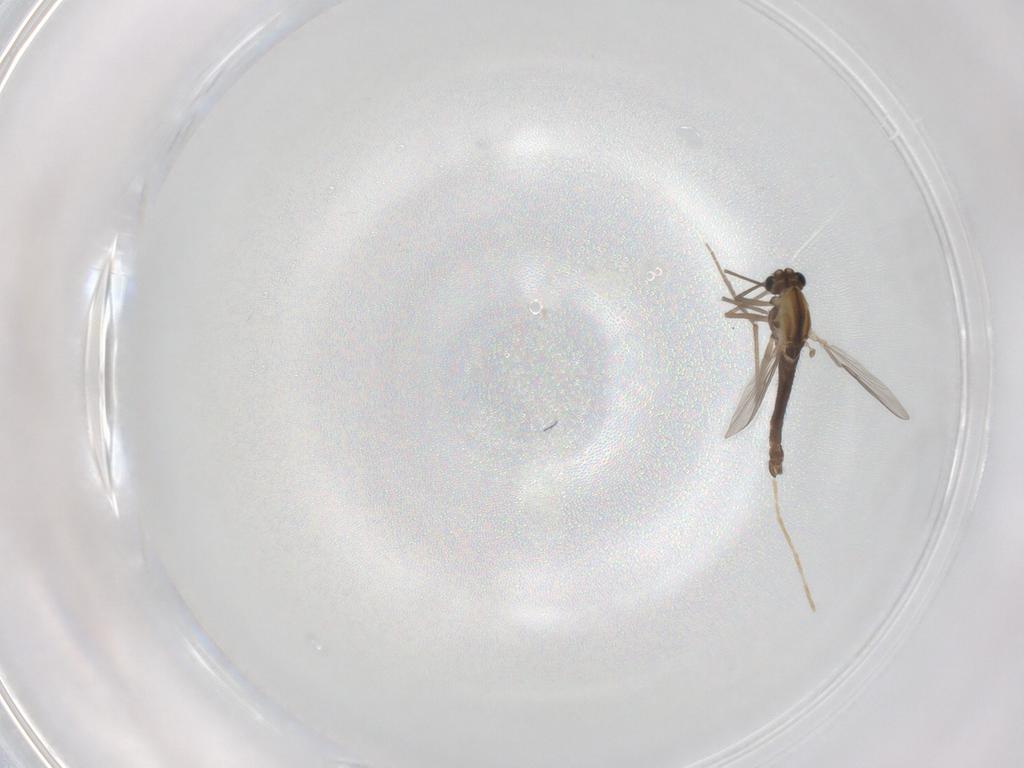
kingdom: Animalia
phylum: Arthropoda
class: Insecta
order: Diptera
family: Chironomidae
